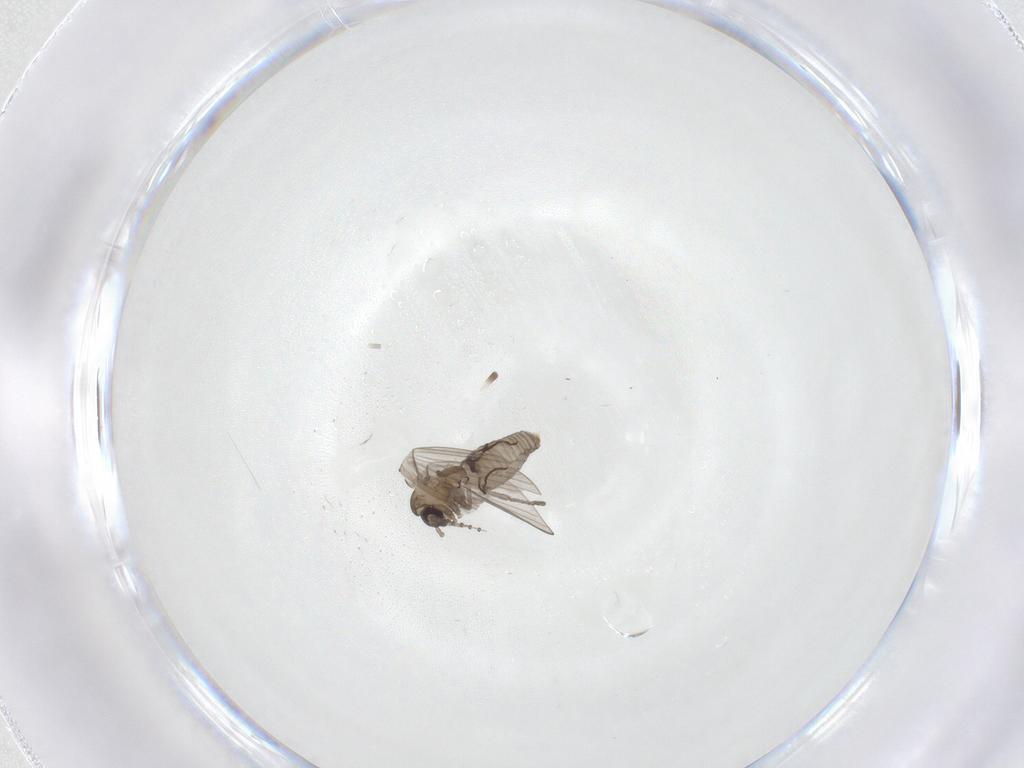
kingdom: Animalia
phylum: Arthropoda
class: Insecta
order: Diptera
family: Psychodidae
